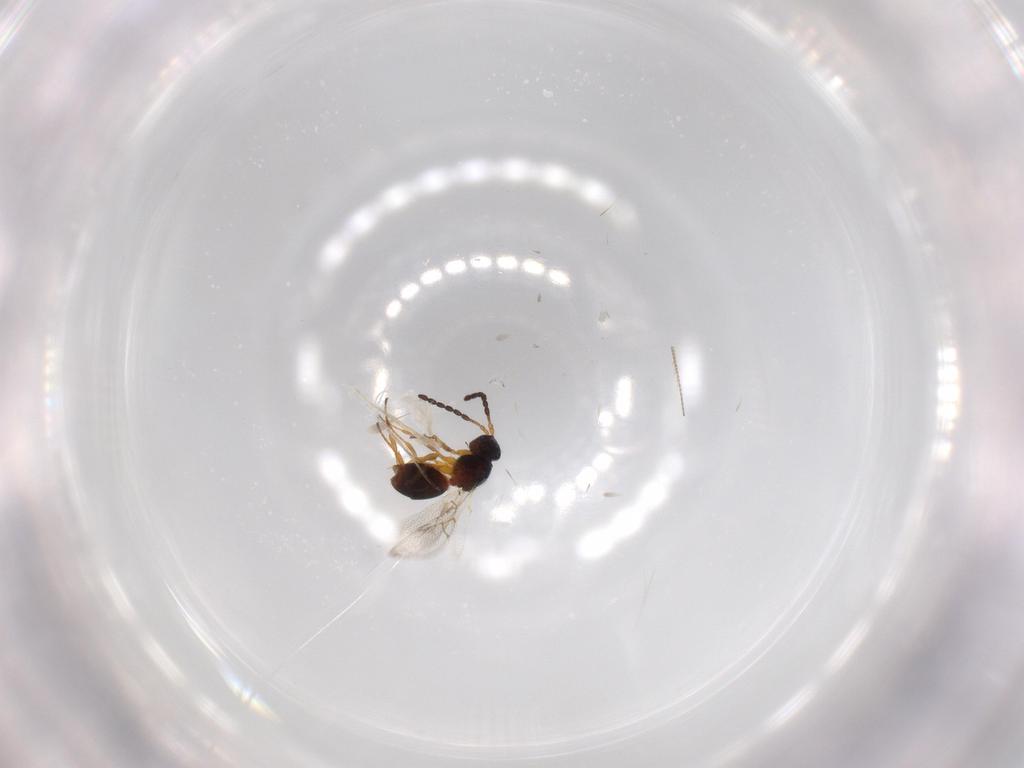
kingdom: Animalia
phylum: Arthropoda
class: Insecta
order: Hymenoptera
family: Figitidae
